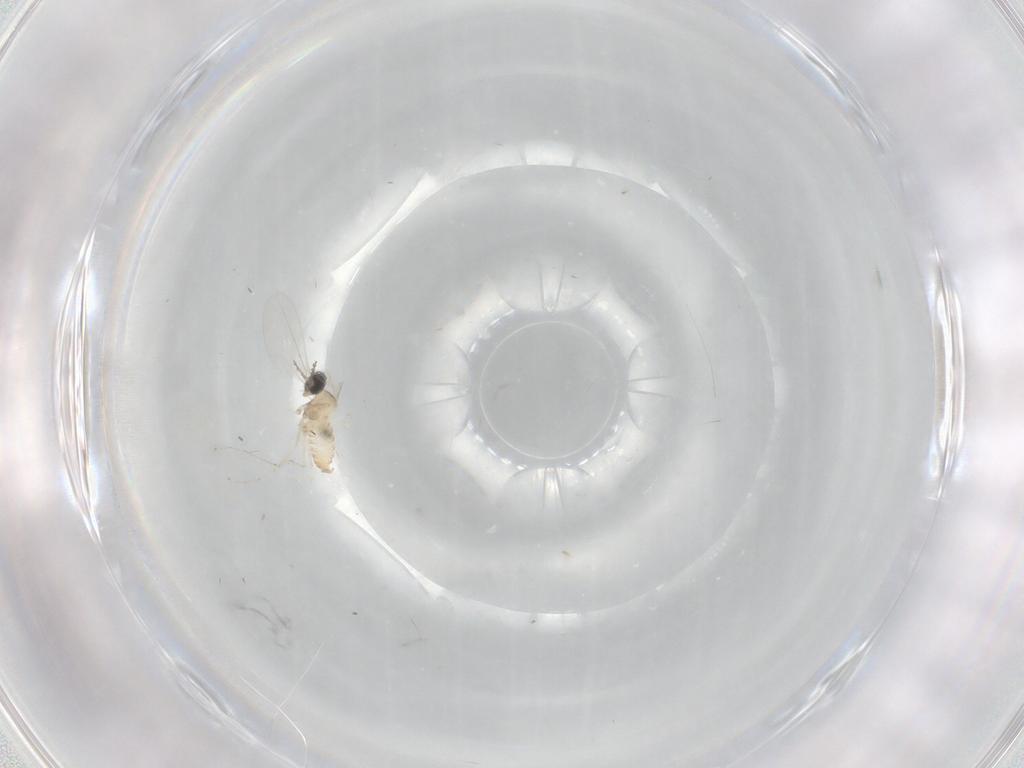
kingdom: Animalia
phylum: Arthropoda
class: Insecta
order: Diptera
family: Cecidomyiidae
